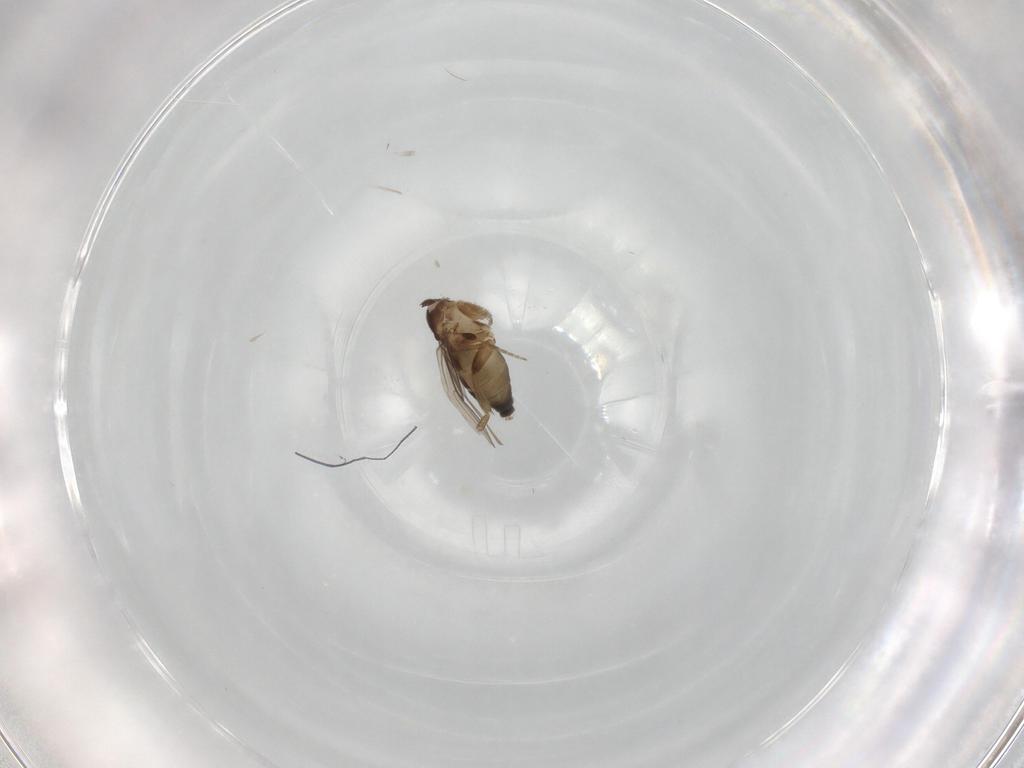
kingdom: Animalia
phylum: Arthropoda
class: Insecta
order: Diptera
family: Phoridae
